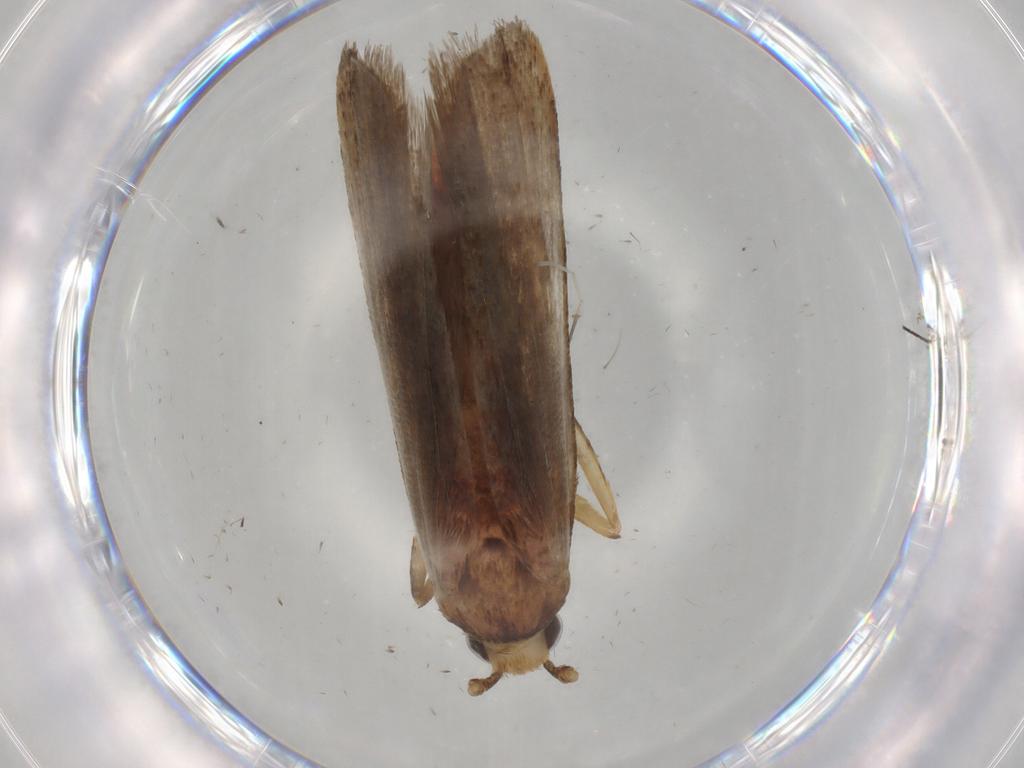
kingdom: Animalia
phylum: Arthropoda
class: Insecta
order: Lepidoptera
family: Autostichidae
